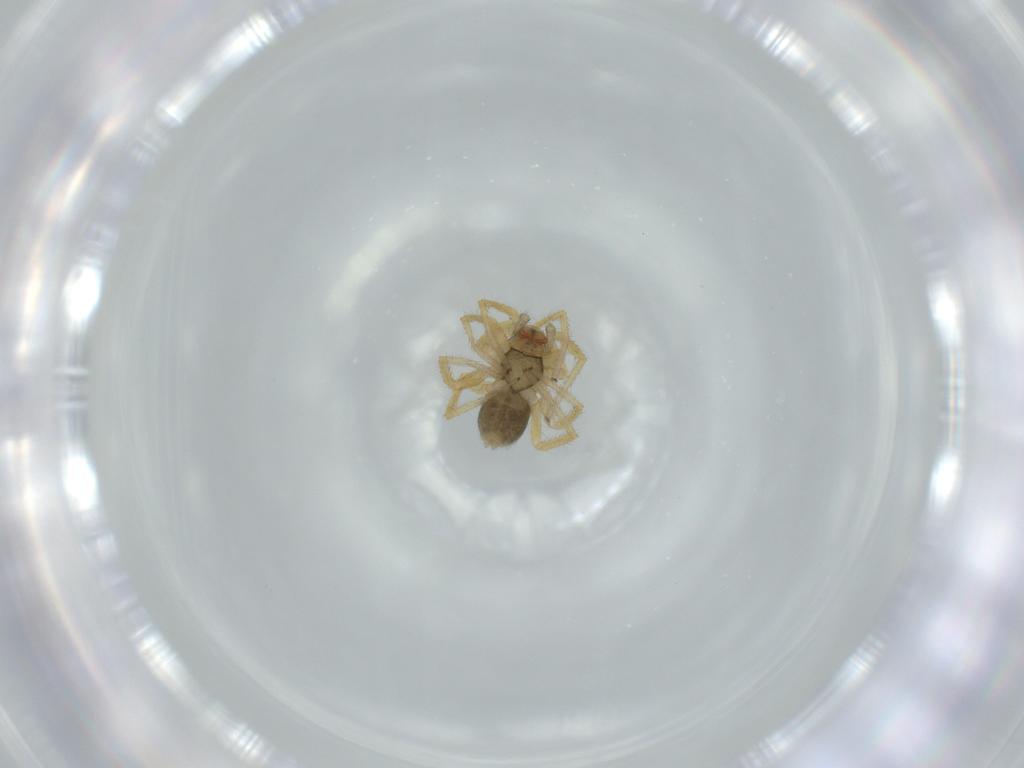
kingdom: Animalia
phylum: Arthropoda
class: Arachnida
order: Araneae
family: Linyphiidae
